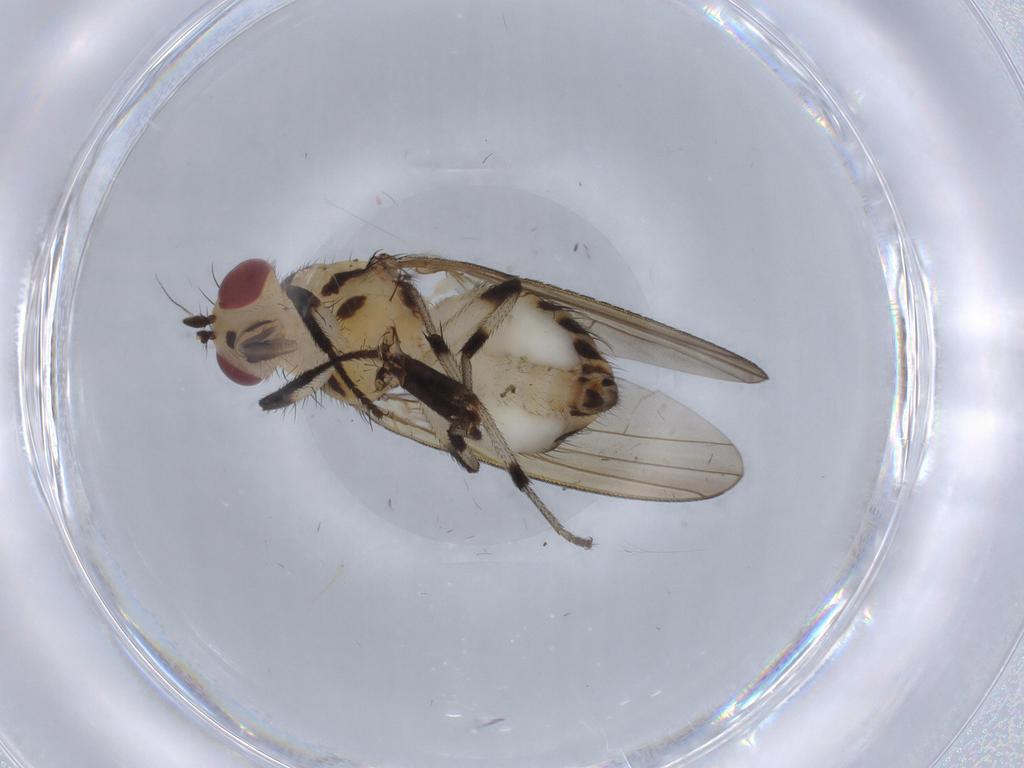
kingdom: Animalia
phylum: Arthropoda
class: Insecta
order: Diptera
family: Lauxaniidae
